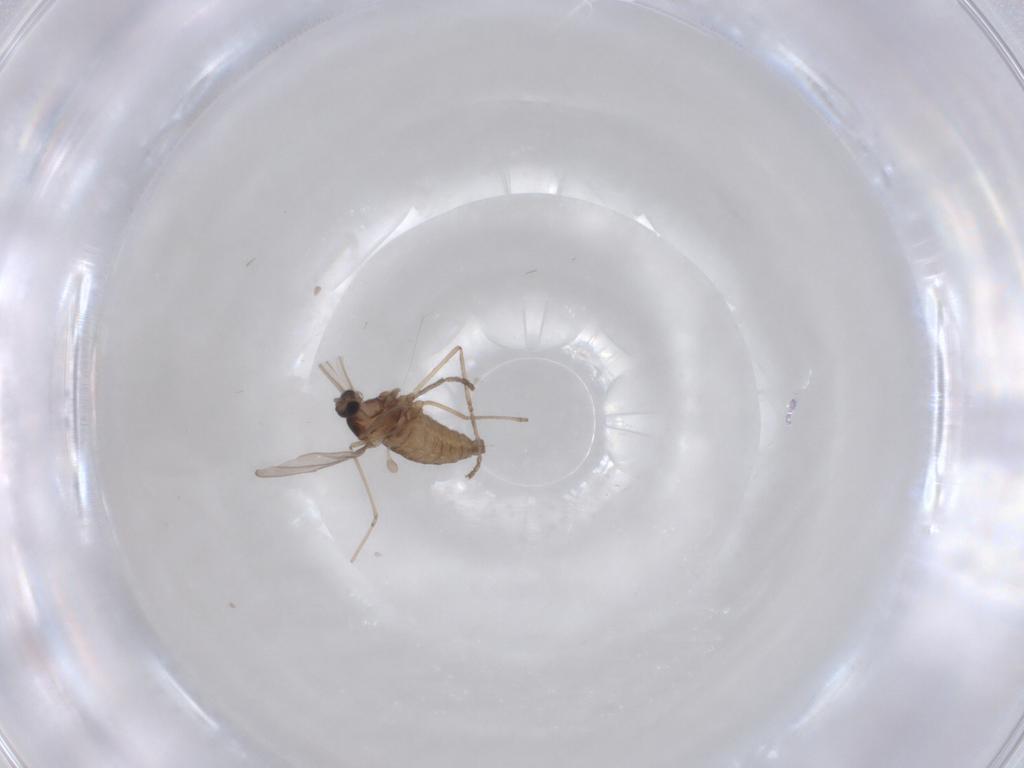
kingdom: Animalia
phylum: Arthropoda
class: Insecta
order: Diptera
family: Cecidomyiidae
